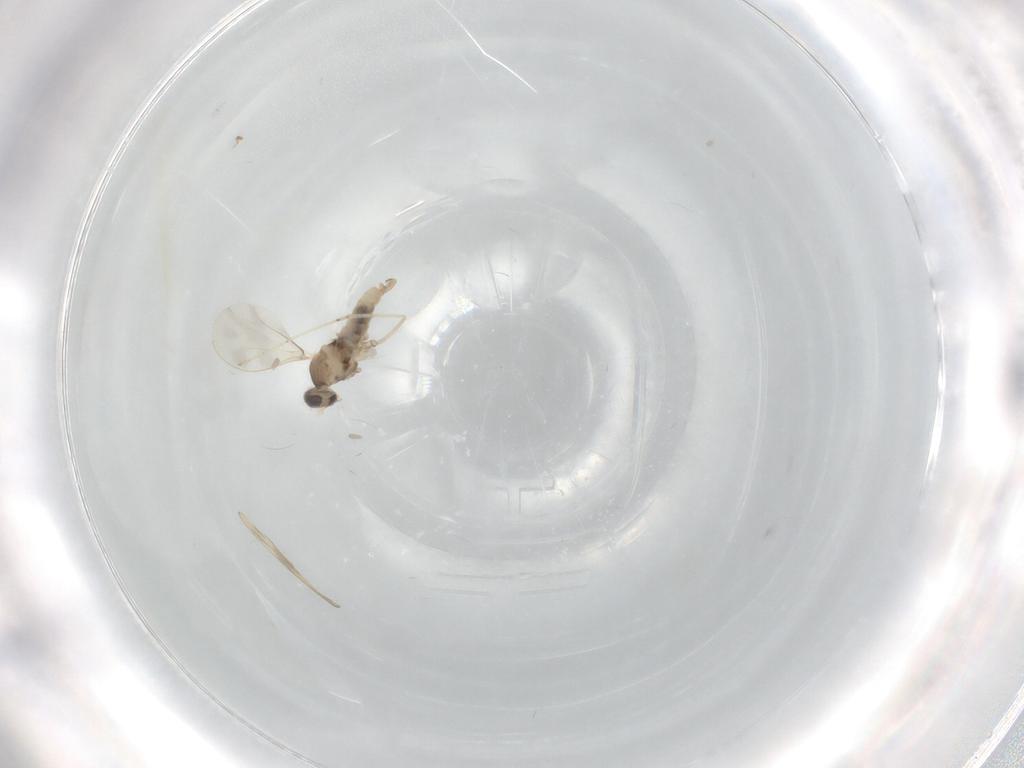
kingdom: Animalia
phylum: Arthropoda
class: Insecta
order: Diptera
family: Cecidomyiidae
